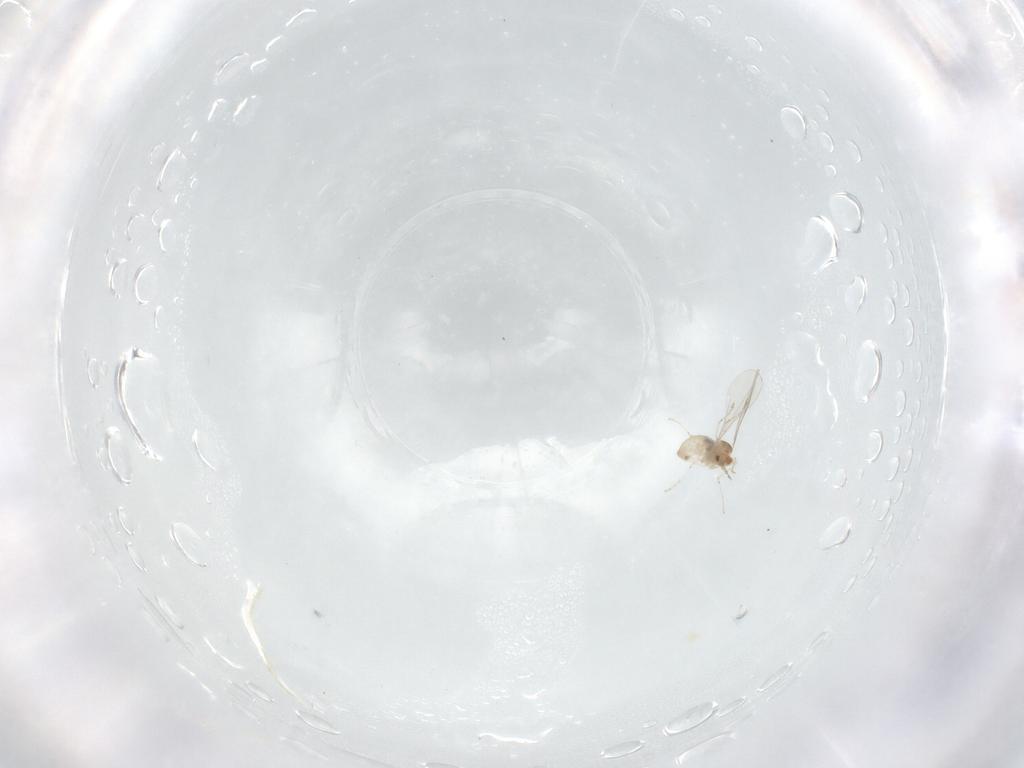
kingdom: Animalia
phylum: Arthropoda
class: Insecta
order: Diptera
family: Cecidomyiidae
